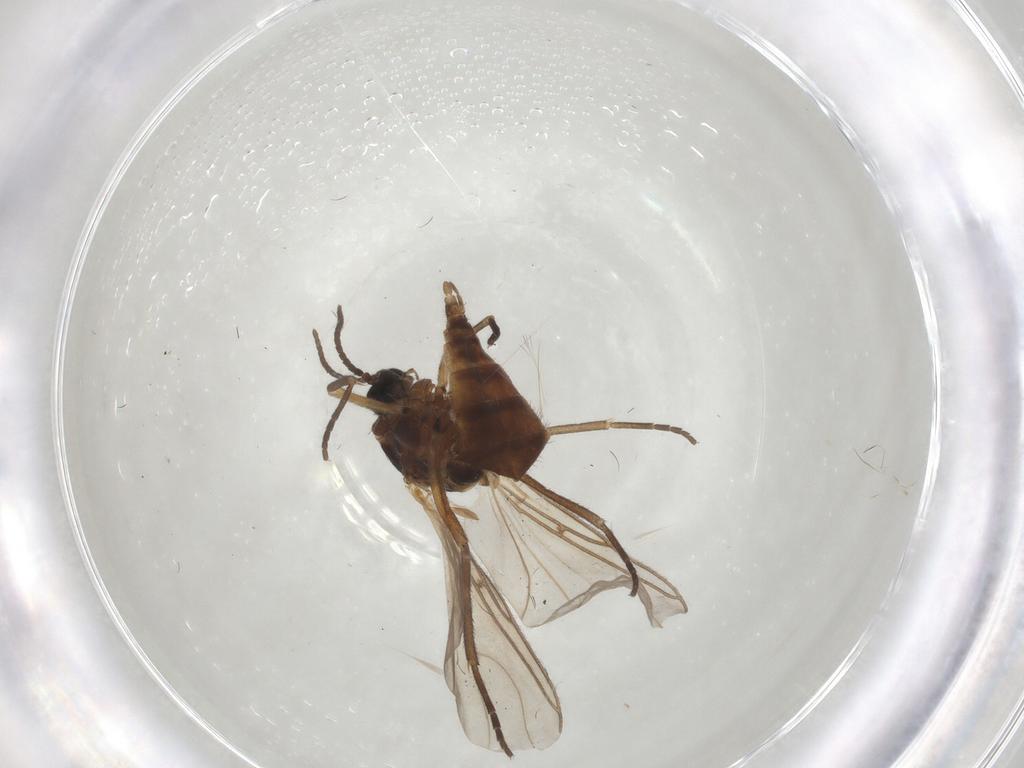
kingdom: Animalia
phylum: Arthropoda
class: Insecta
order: Diptera
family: Sciaridae
